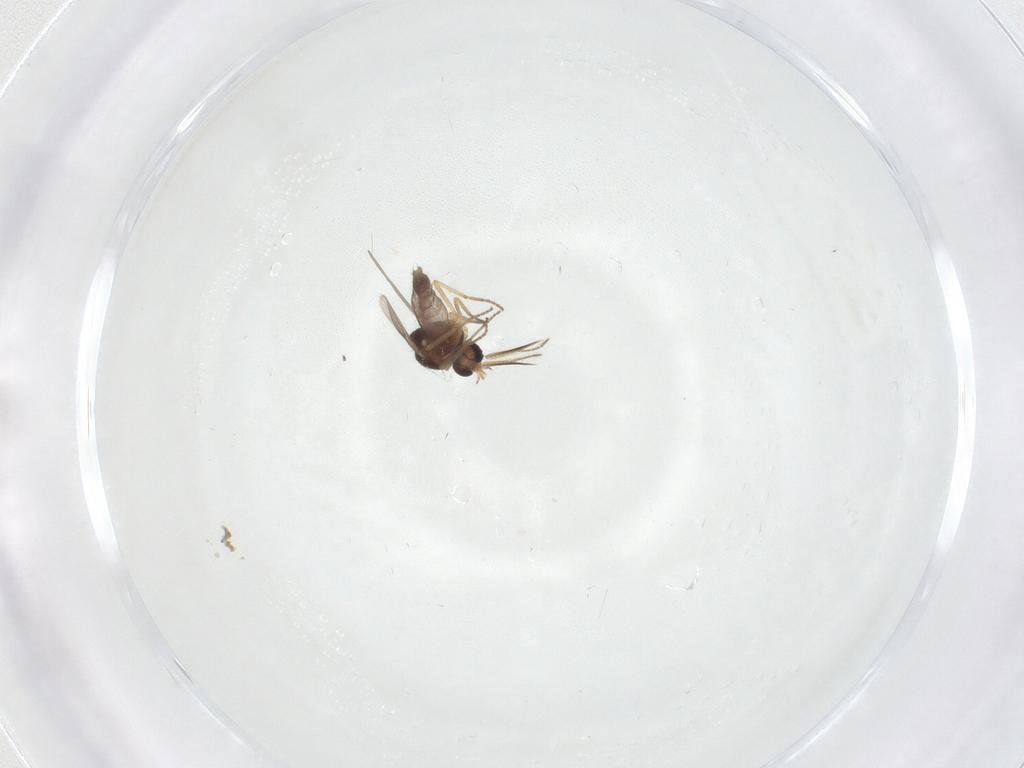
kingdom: Animalia
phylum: Arthropoda
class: Insecta
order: Diptera
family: Ceratopogonidae
